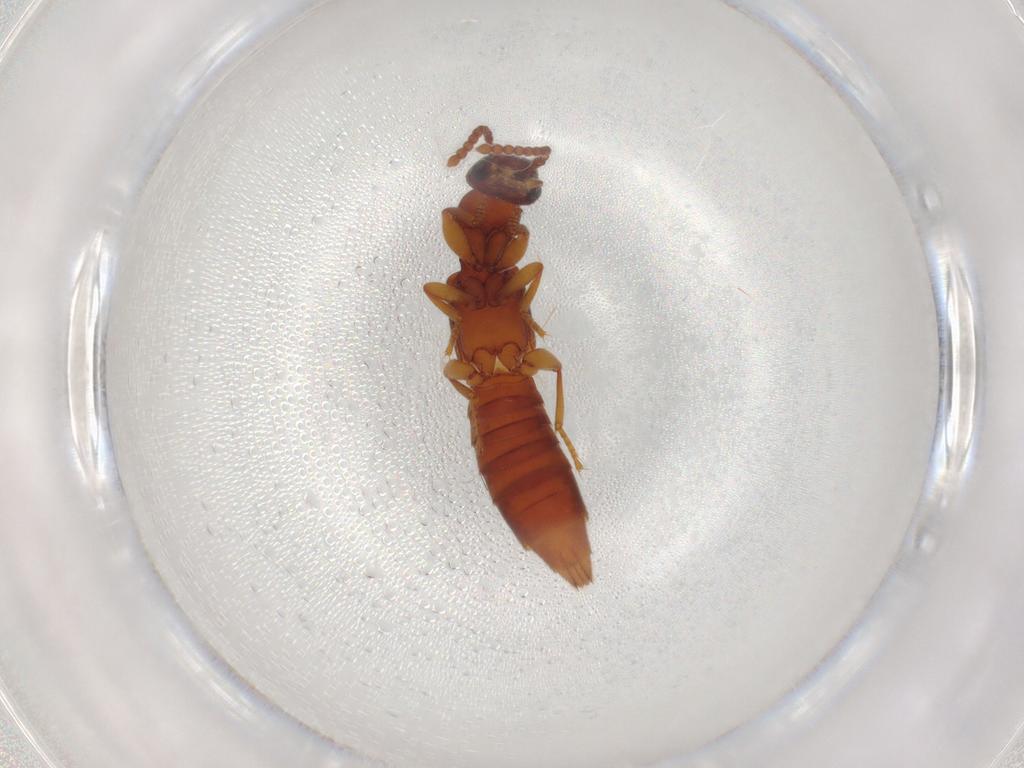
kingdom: Animalia
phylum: Arthropoda
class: Insecta
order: Coleoptera
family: Staphylinidae
